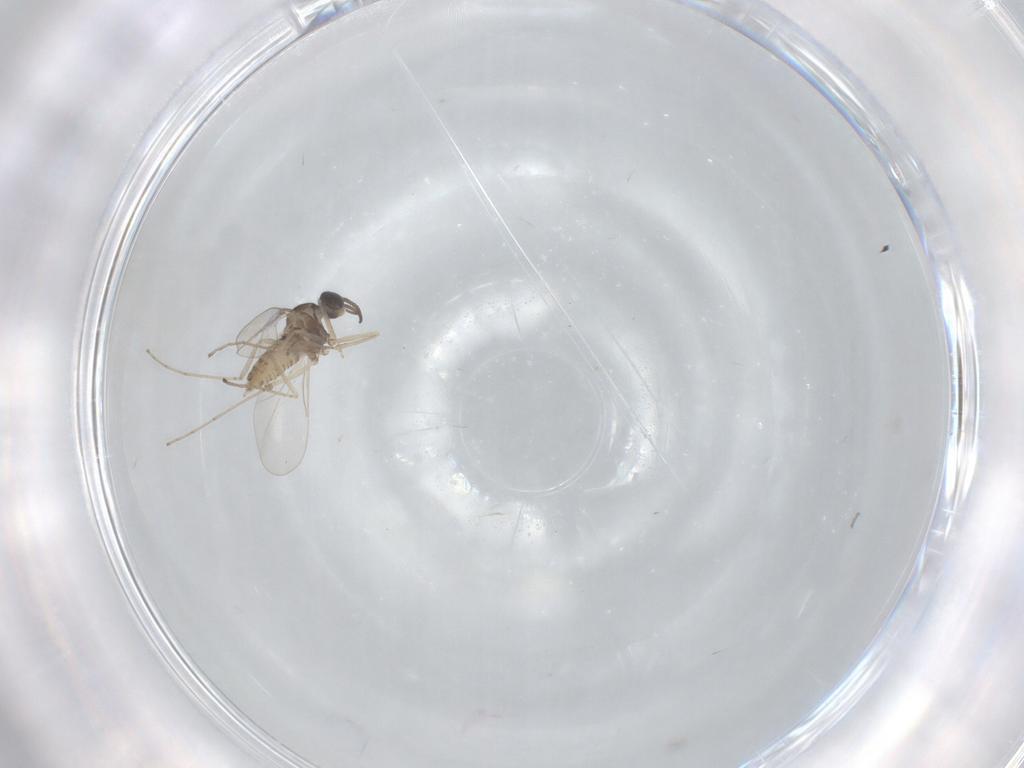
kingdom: Animalia
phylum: Arthropoda
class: Insecta
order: Diptera
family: Cecidomyiidae
